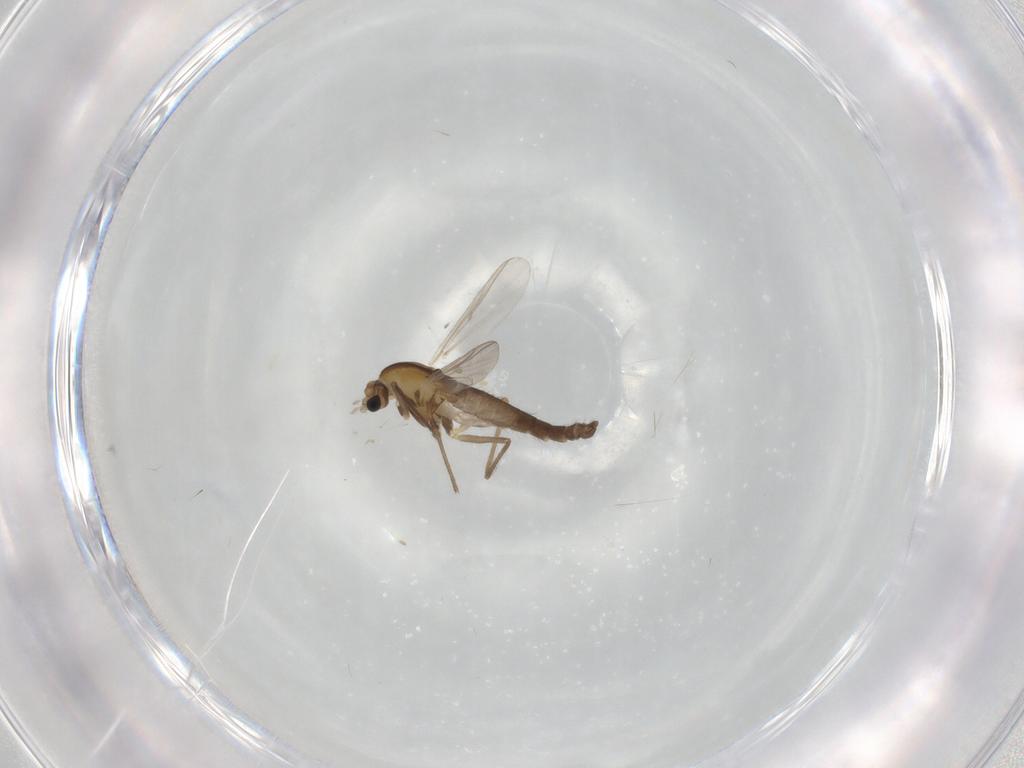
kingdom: Animalia
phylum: Arthropoda
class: Insecta
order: Diptera
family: Chironomidae
